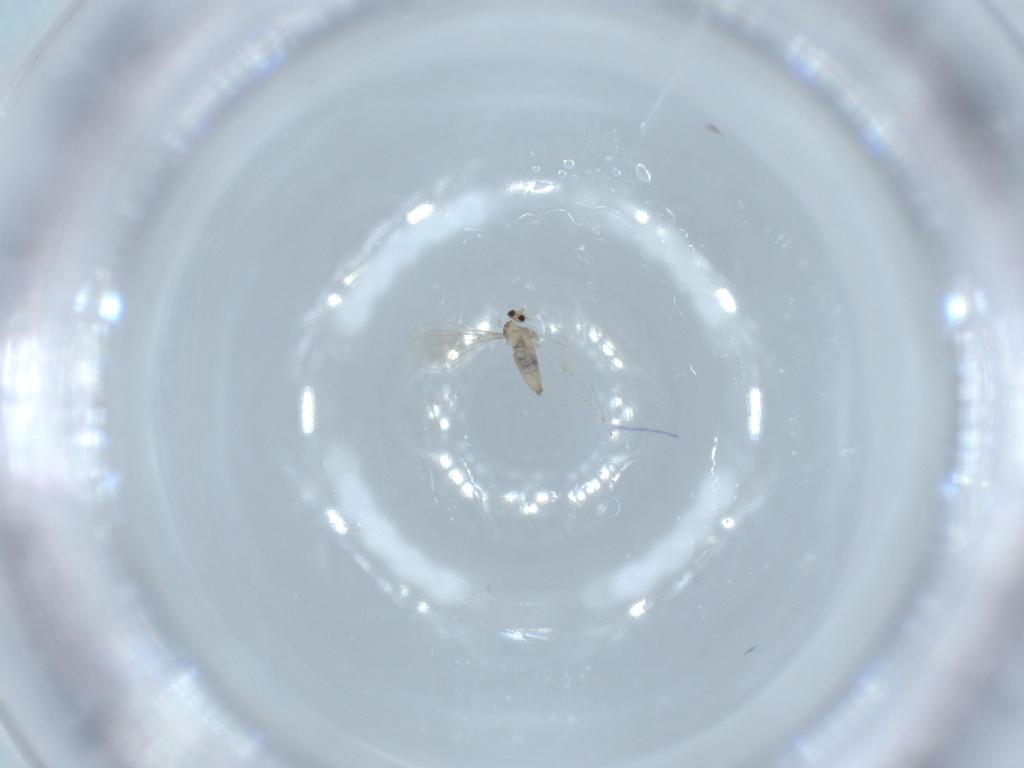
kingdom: Animalia
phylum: Arthropoda
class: Insecta
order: Diptera
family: Cecidomyiidae
